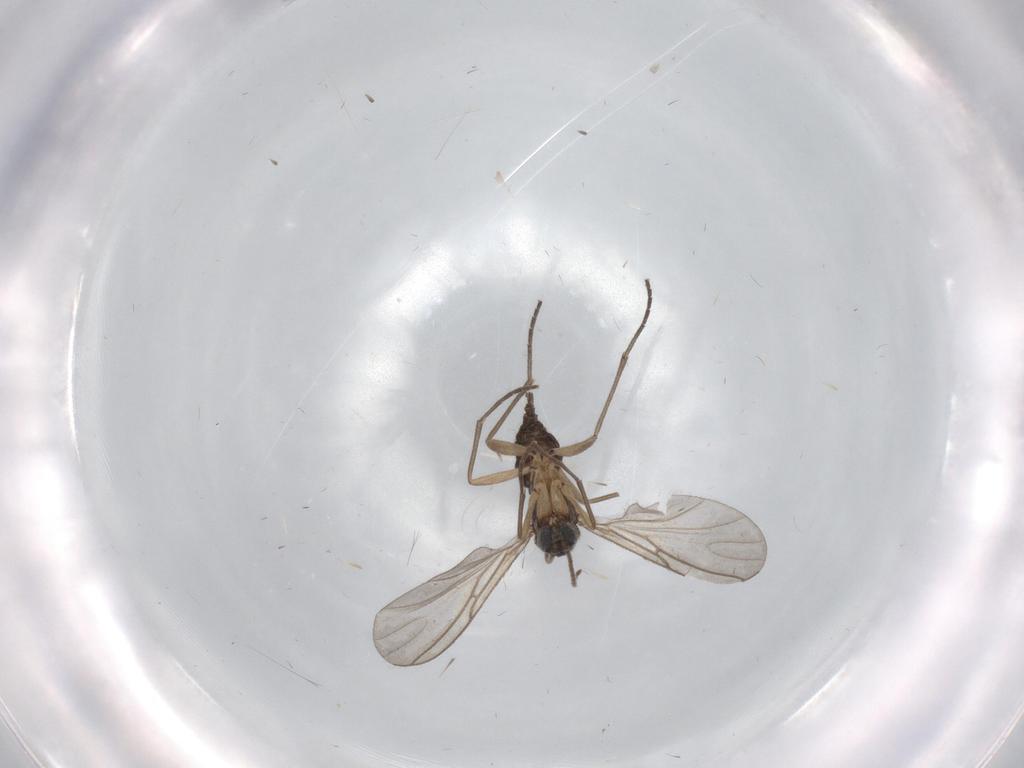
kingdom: Animalia
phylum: Arthropoda
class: Insecta
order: Diptera
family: Sciaridae
